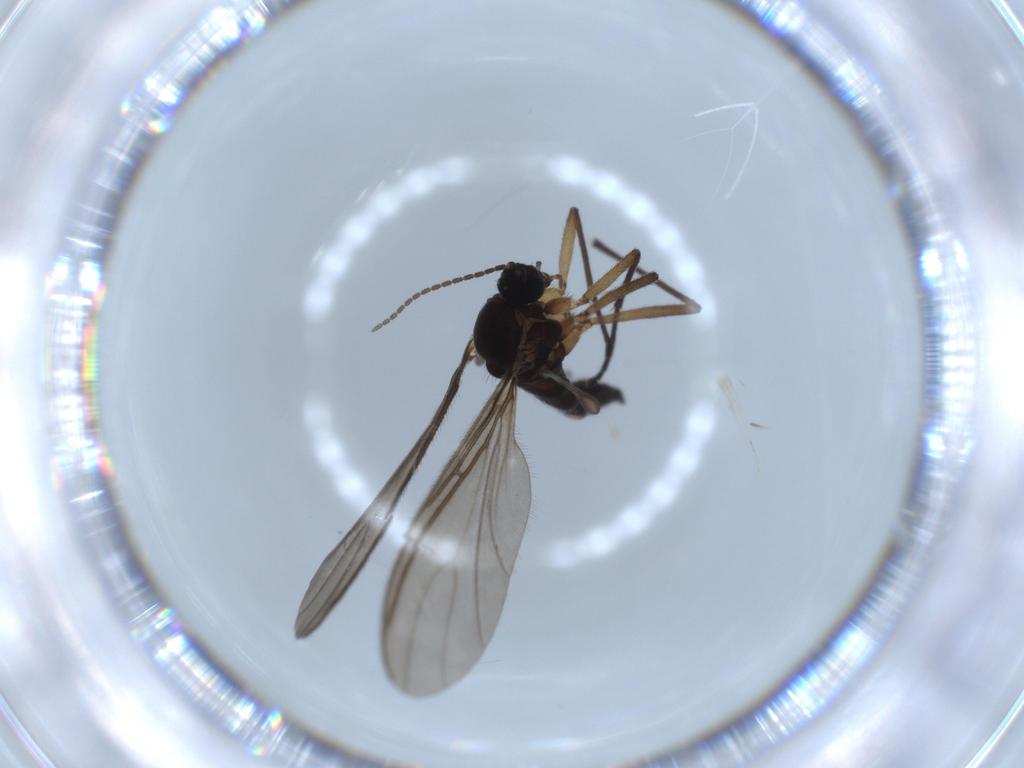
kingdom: Animalia
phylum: Arthropoda
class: Insecta
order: Diptera
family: Sciaridae
